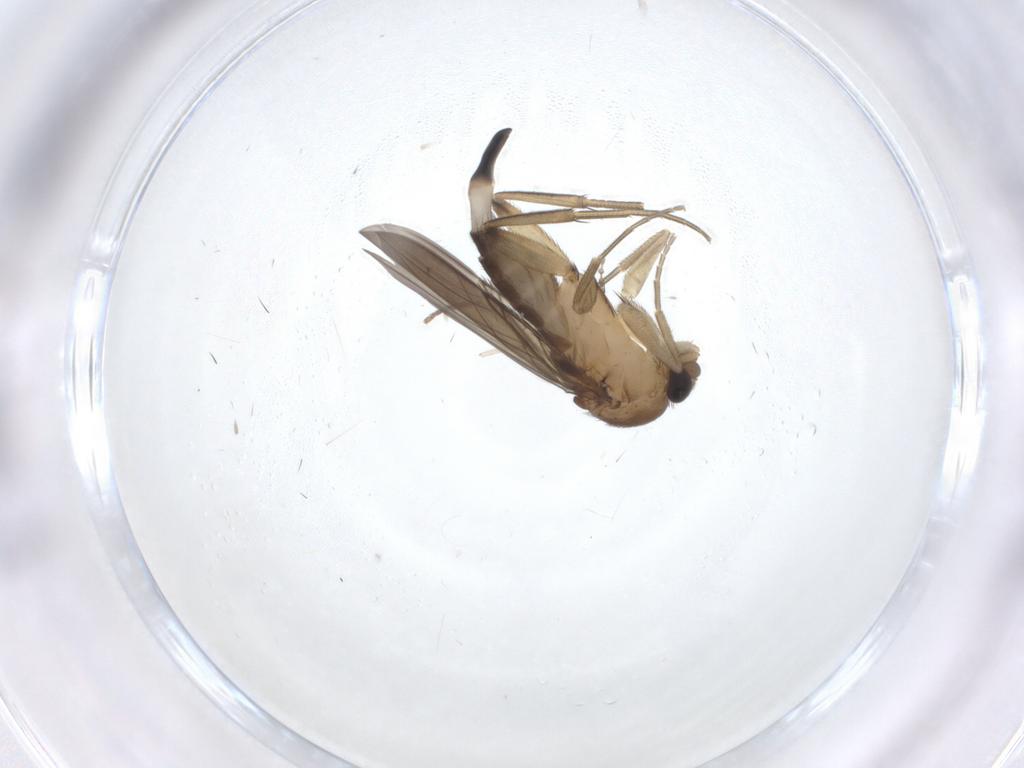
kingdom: Animalia
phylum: Arthropoda
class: Insecta
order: Diptera
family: Phoridae
